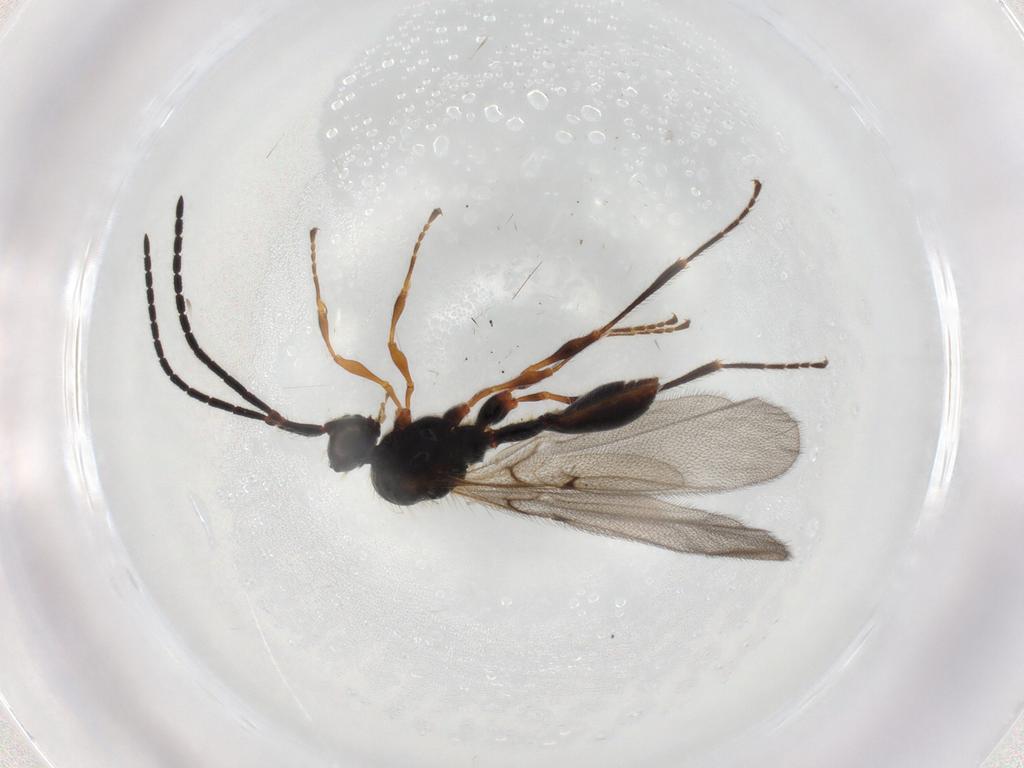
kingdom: Animalia
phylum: Arthropoda
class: Insecta
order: Hymenoptera
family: Diapriidae
